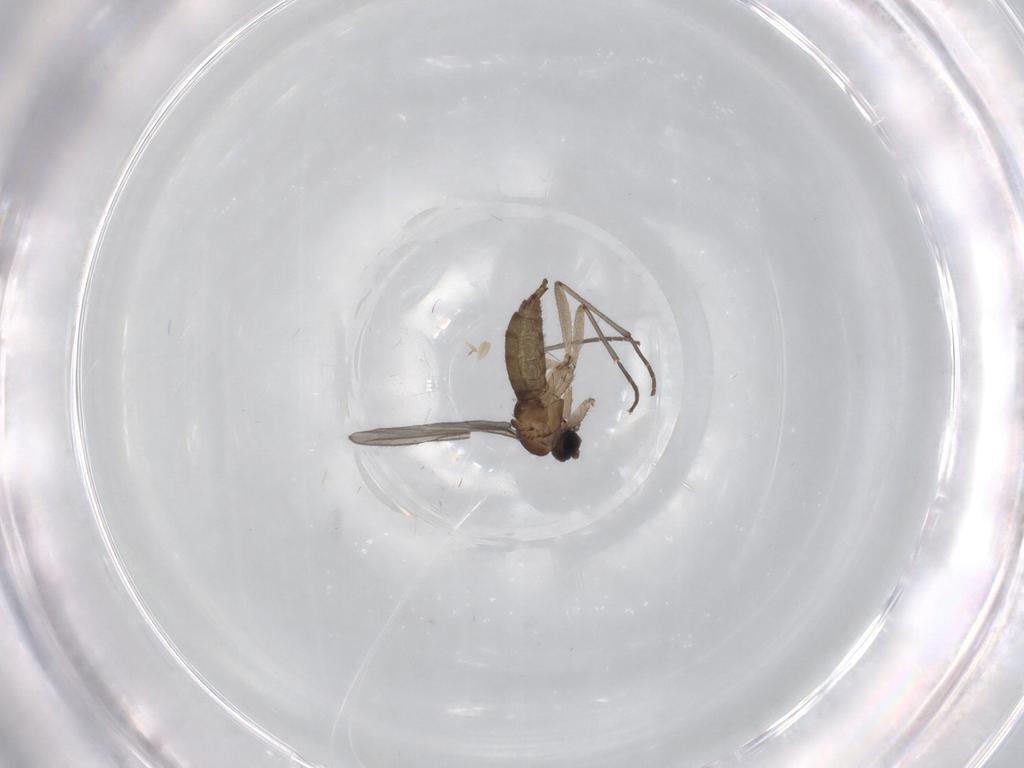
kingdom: Animalia
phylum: Arthropoda
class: Insecta
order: Diptera
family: Sciaridae
